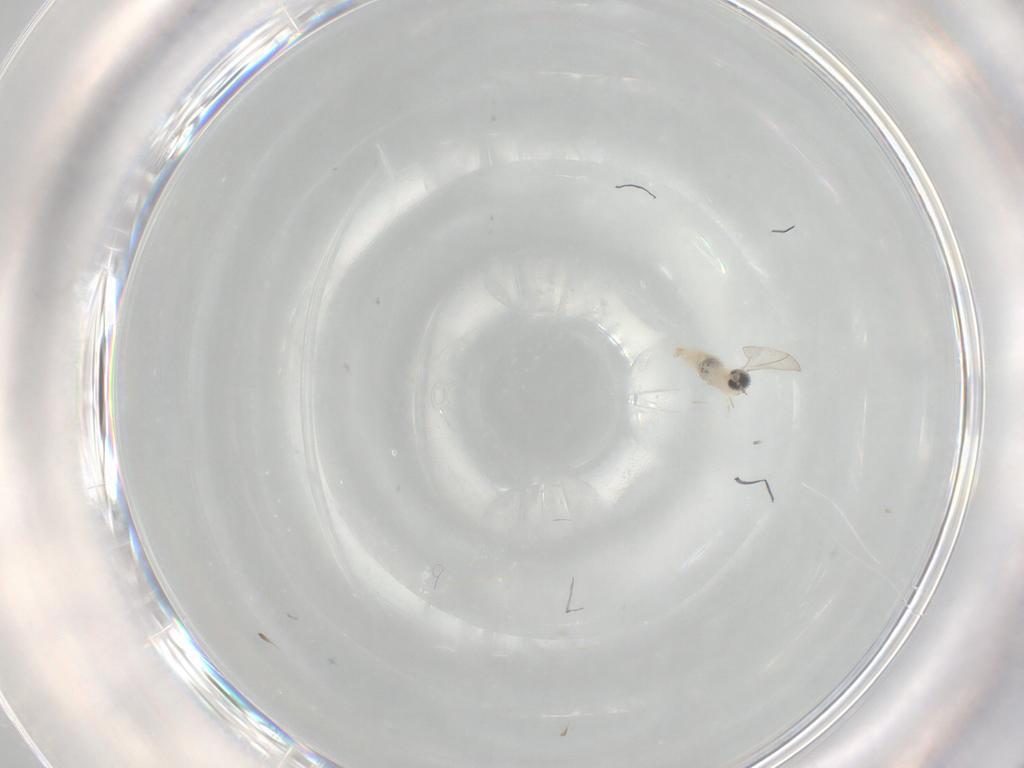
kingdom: Animalia
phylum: Arthropoda
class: Insecta
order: Diptera
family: Cecidomyiidae
